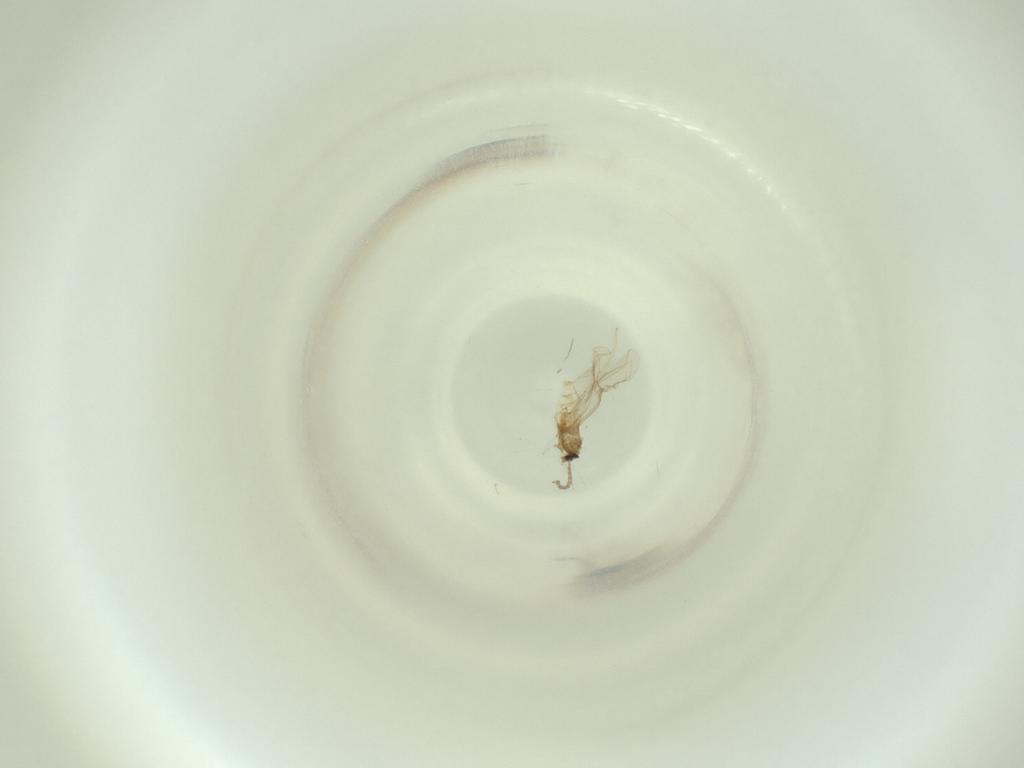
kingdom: Animalia
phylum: Arthropoda
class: Insecta
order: Diptera
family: Cecidomyiidae
